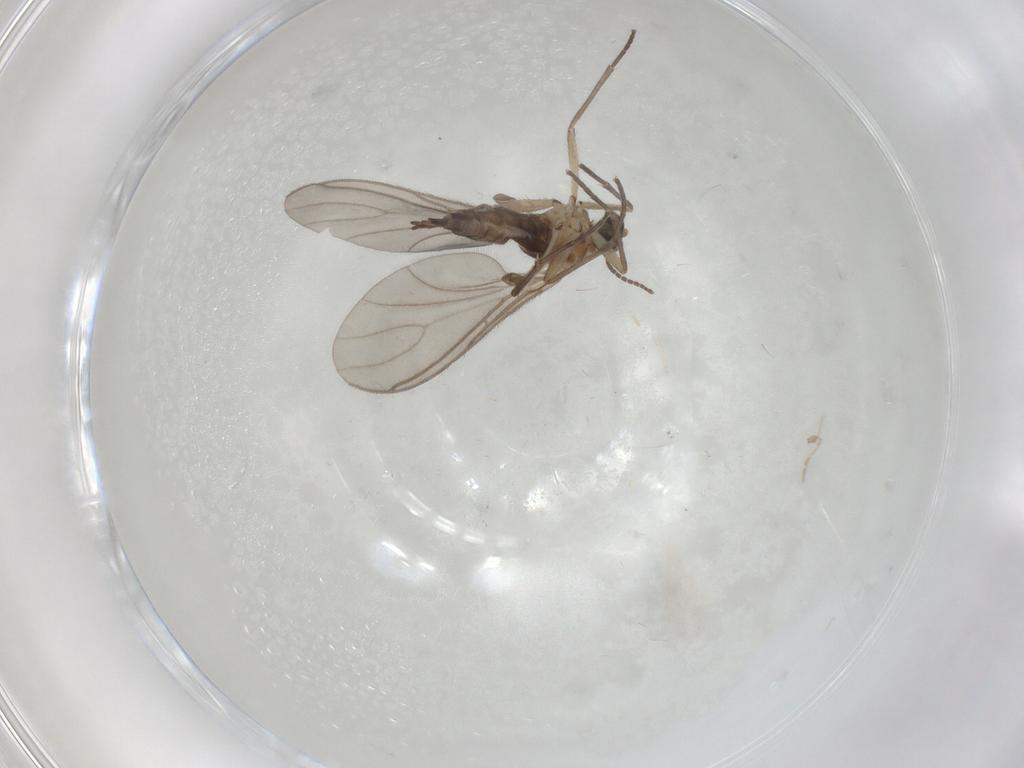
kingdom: Animalia
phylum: Arthropoda
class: Insecta
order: Diptera
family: Sciaridae
